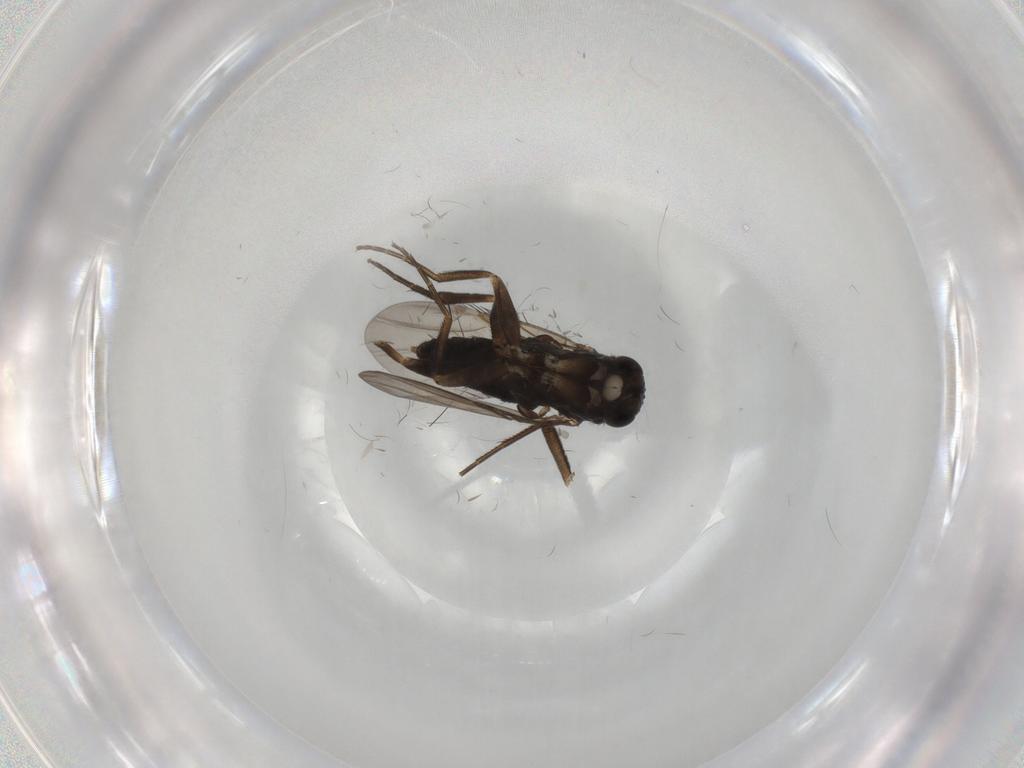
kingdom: Animalia
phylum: Arthropoda
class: Insecta
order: Diptera
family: Phoridae
